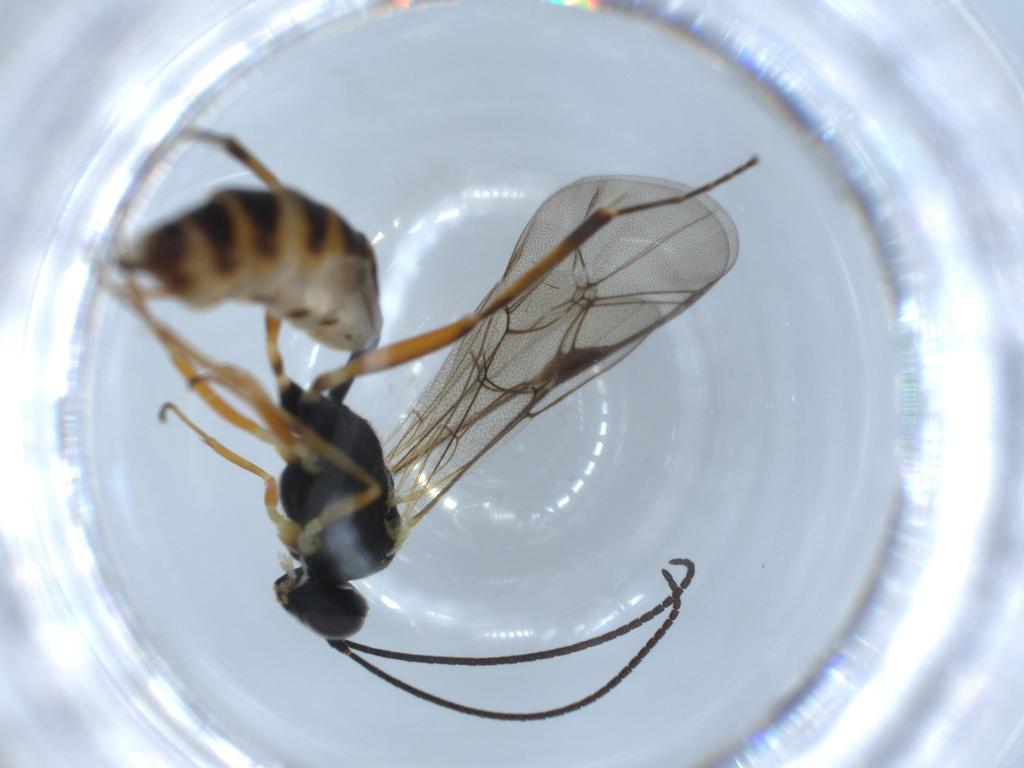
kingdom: Animalia
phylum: Arthropoda
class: Insecta
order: Hymenoptera
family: Ichneumonidae
